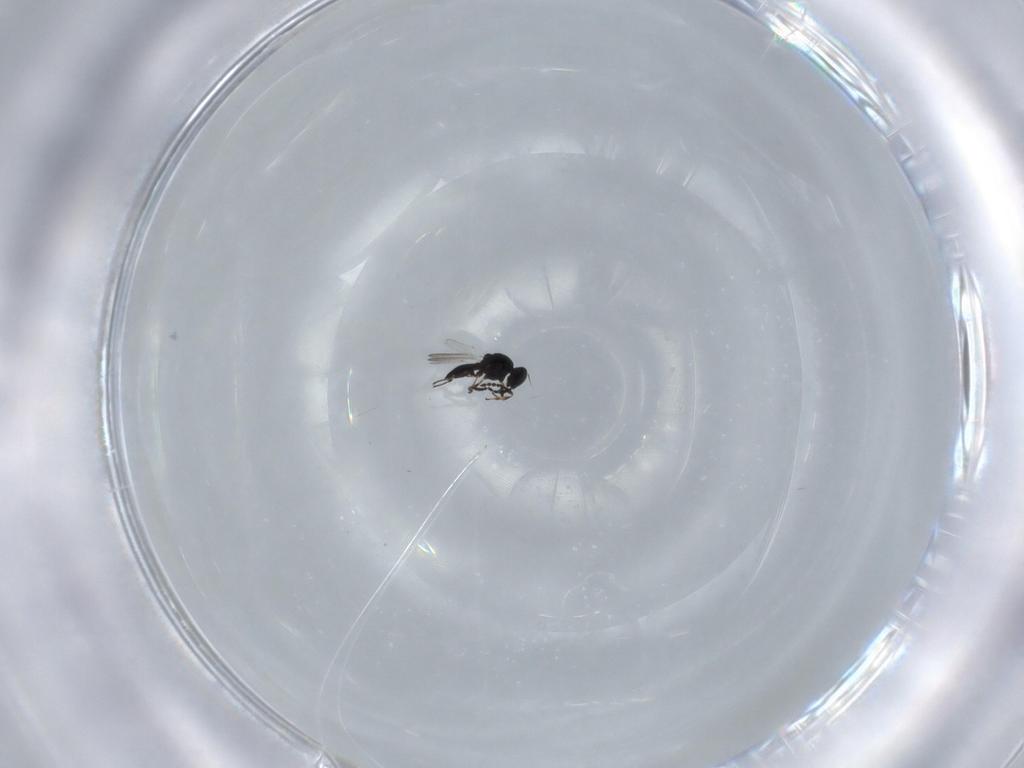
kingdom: Animalia
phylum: Arthropoda
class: Insecta
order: Hymenoptera
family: Platygastridae
